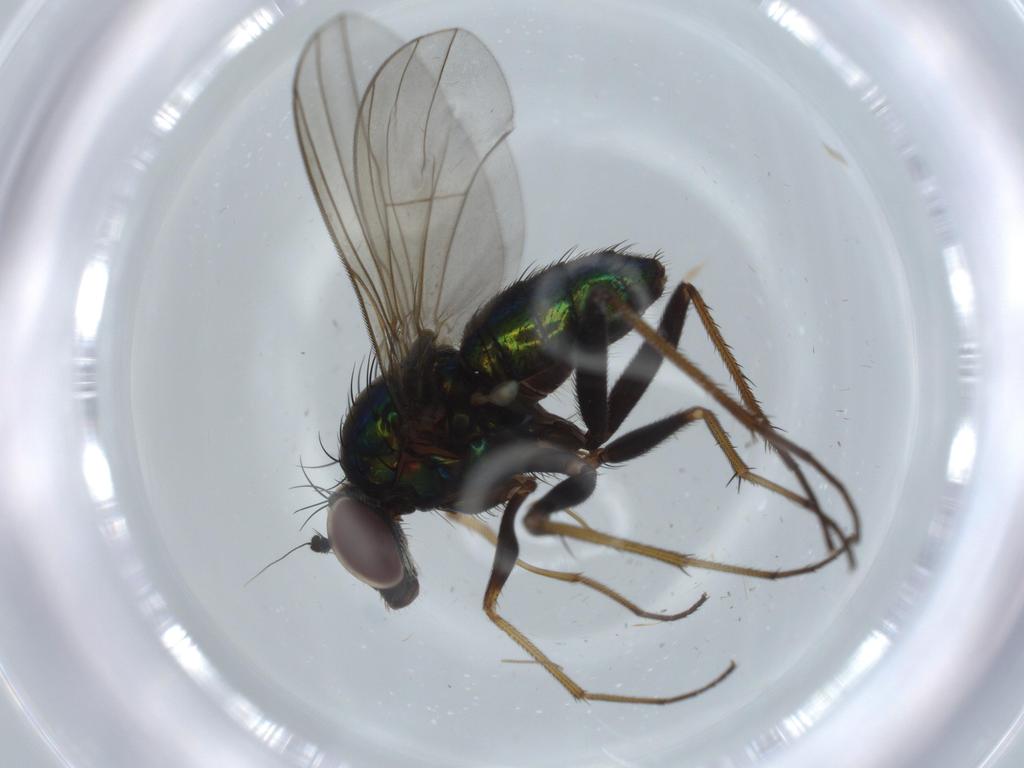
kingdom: Animalia
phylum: Arthropoda
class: Insecta
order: Diptera
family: Dolichopodidae
